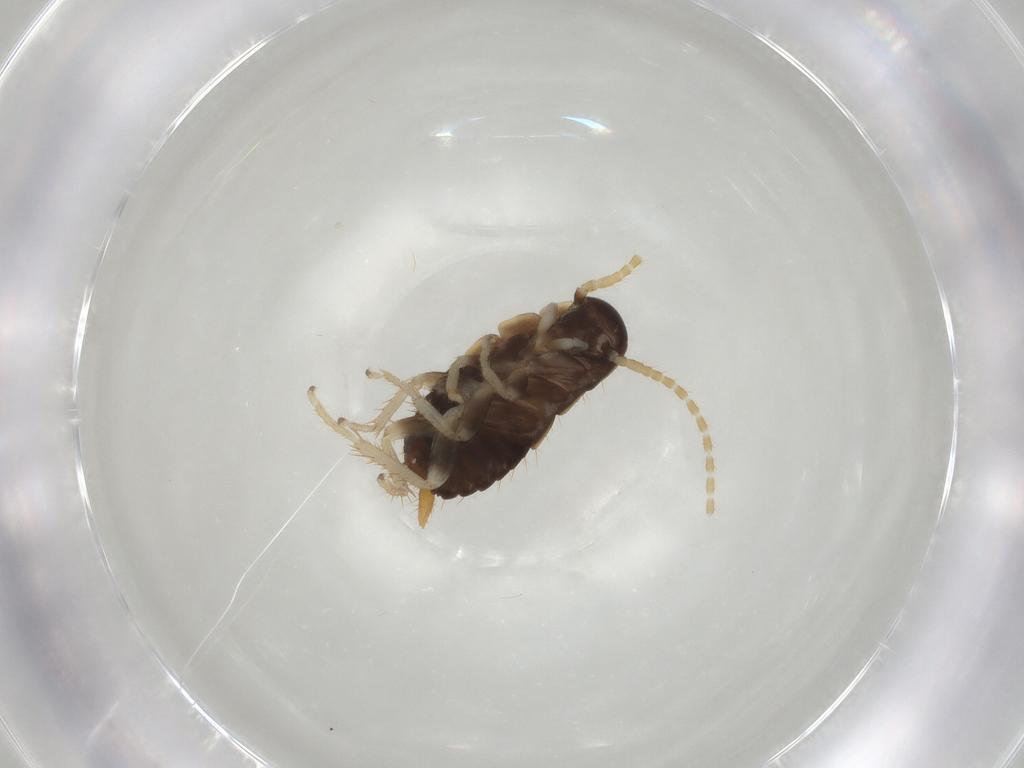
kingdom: Animalia
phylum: Arthropoda
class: Insecta
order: Blattodea
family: Ectobiidae
